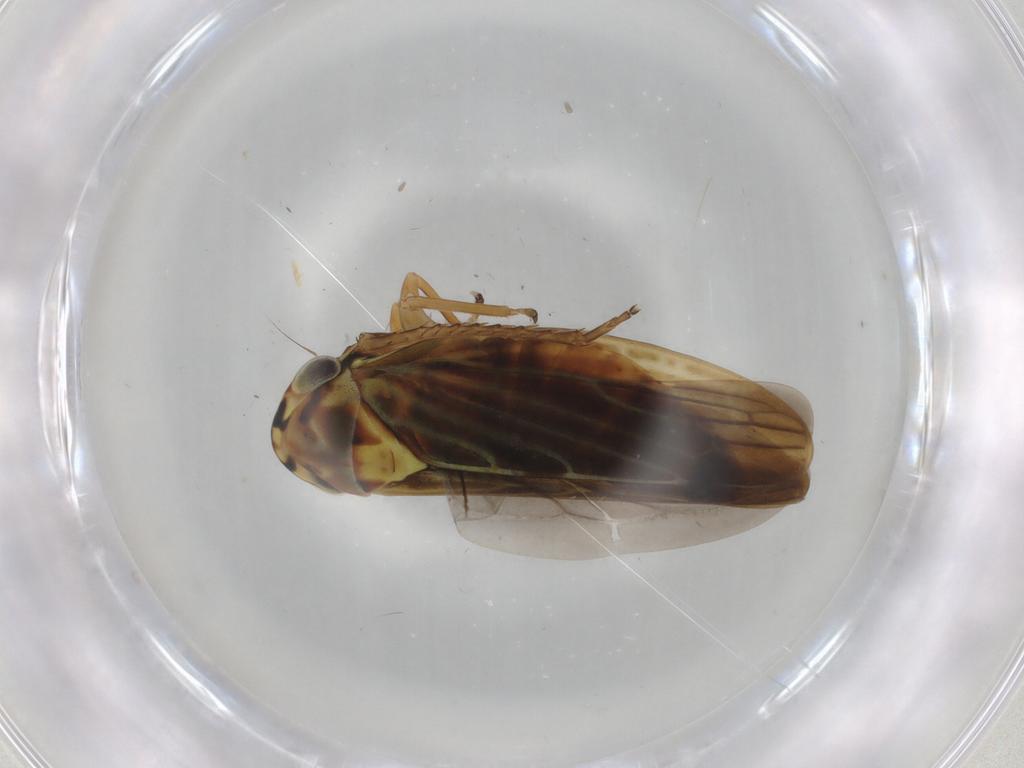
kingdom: Animalia
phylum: Arthropoda
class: Insecta
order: Hemiptera
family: Cicadellidae
